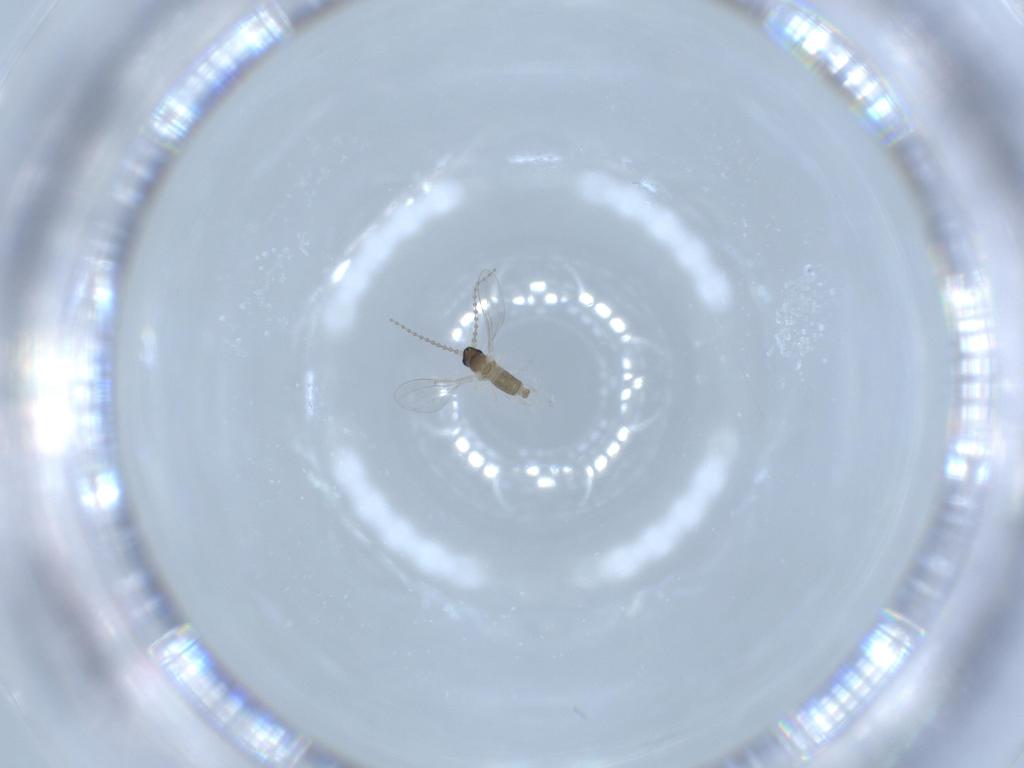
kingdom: Animalia
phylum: Arthropoda
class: Insecta
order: Diptera
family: Cecidomyiidae
